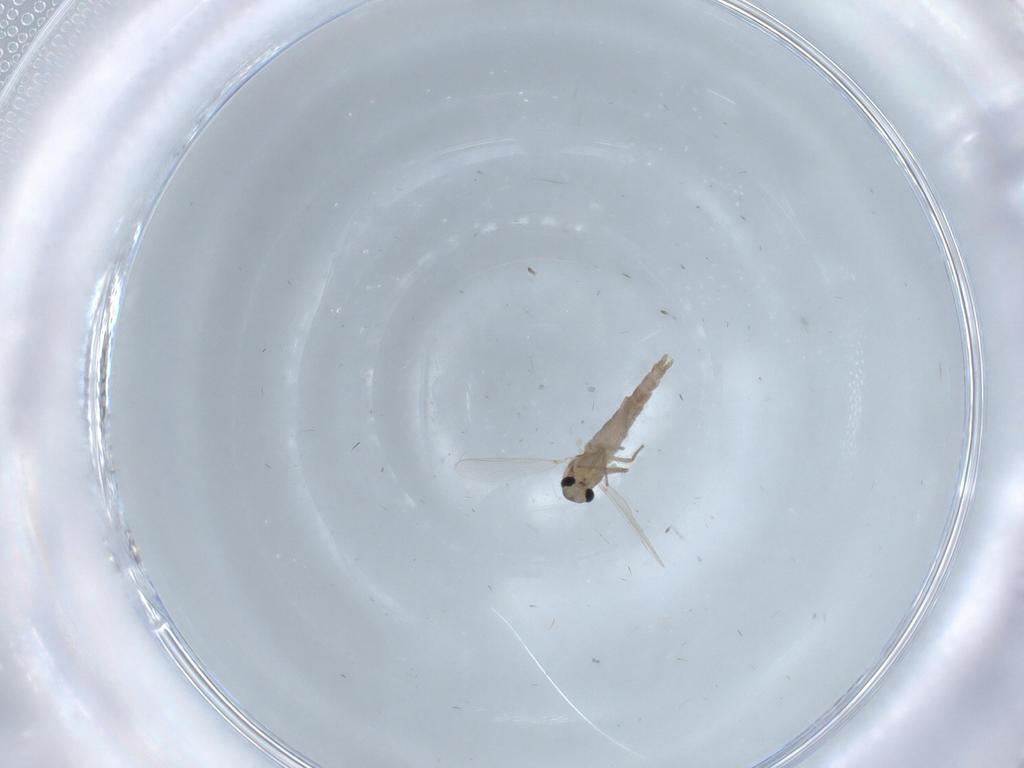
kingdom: Animalia
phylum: Arthropoda
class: Insecta
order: Diptera
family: Chironomidae
